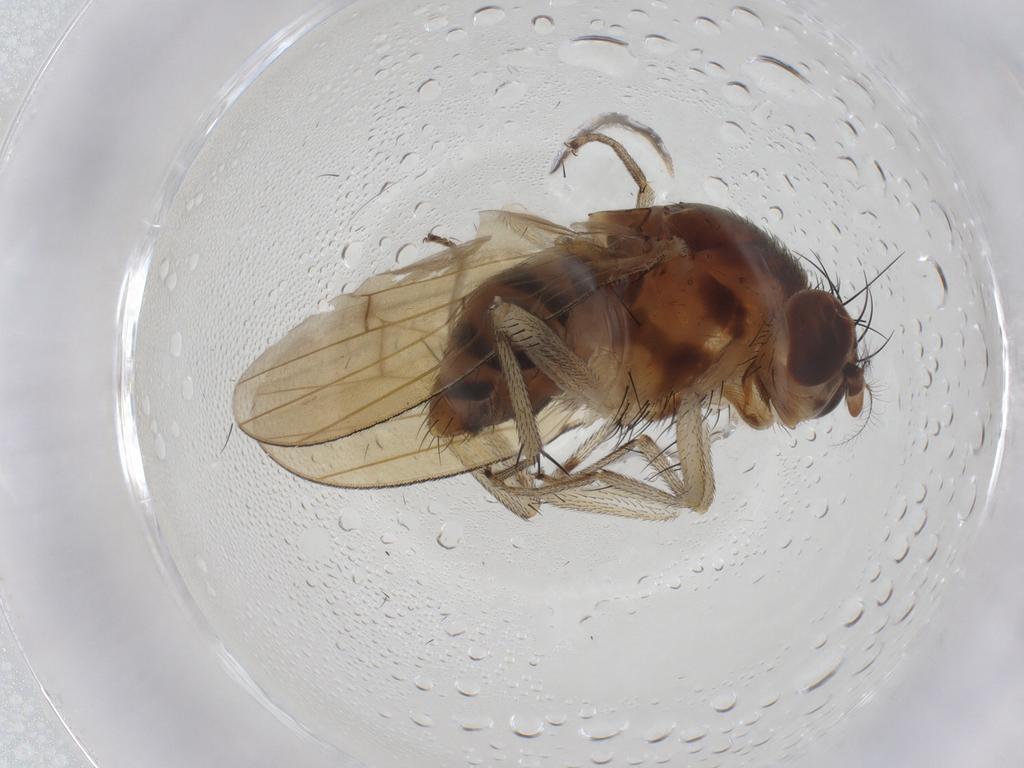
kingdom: Animalia
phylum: Arthropoda
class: Insecta
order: Diptera
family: Lauxaniidae
